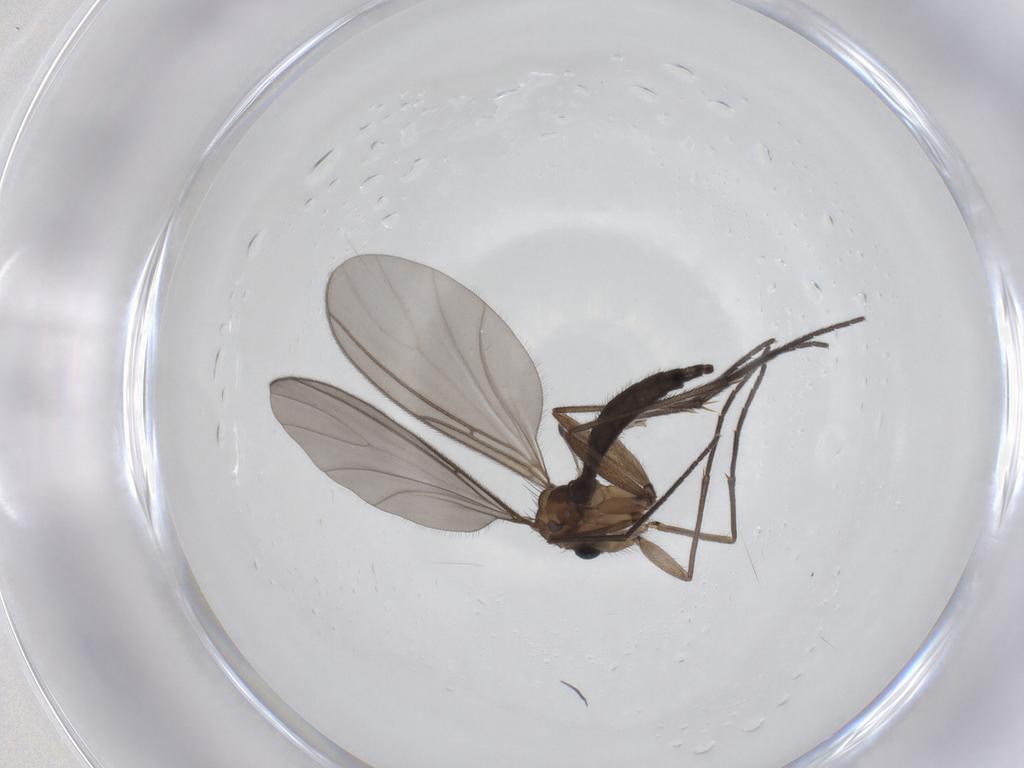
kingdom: Animalia
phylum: Arthropoda
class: Insecta
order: Diptera
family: Sciaridae
